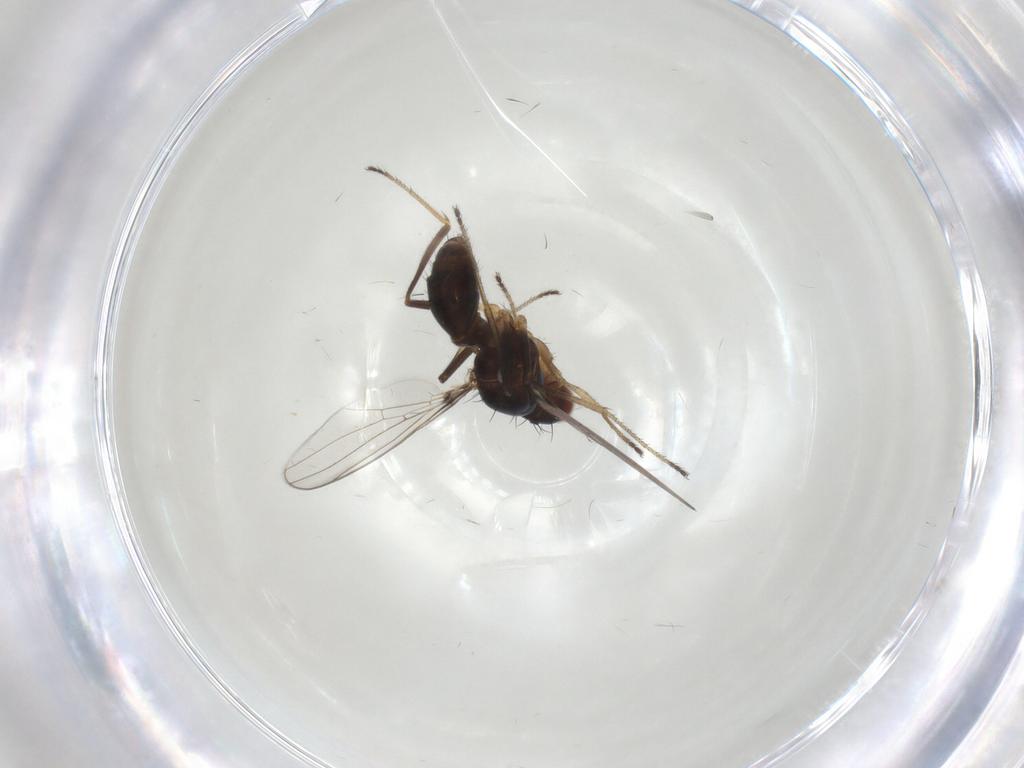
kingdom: Animalia
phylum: Arthropoda
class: Insecta
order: Diptera
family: Sepsidae
